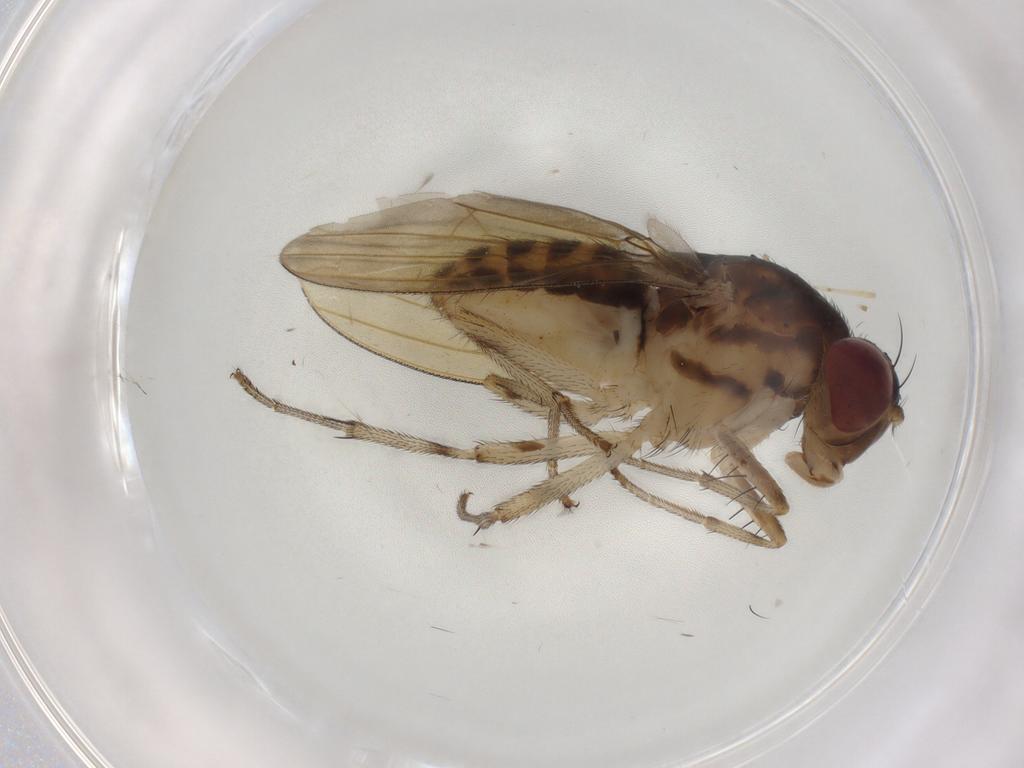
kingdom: Animalia
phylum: Arthropoda
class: Insecta
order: Diptera
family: Cecidomyiidae
